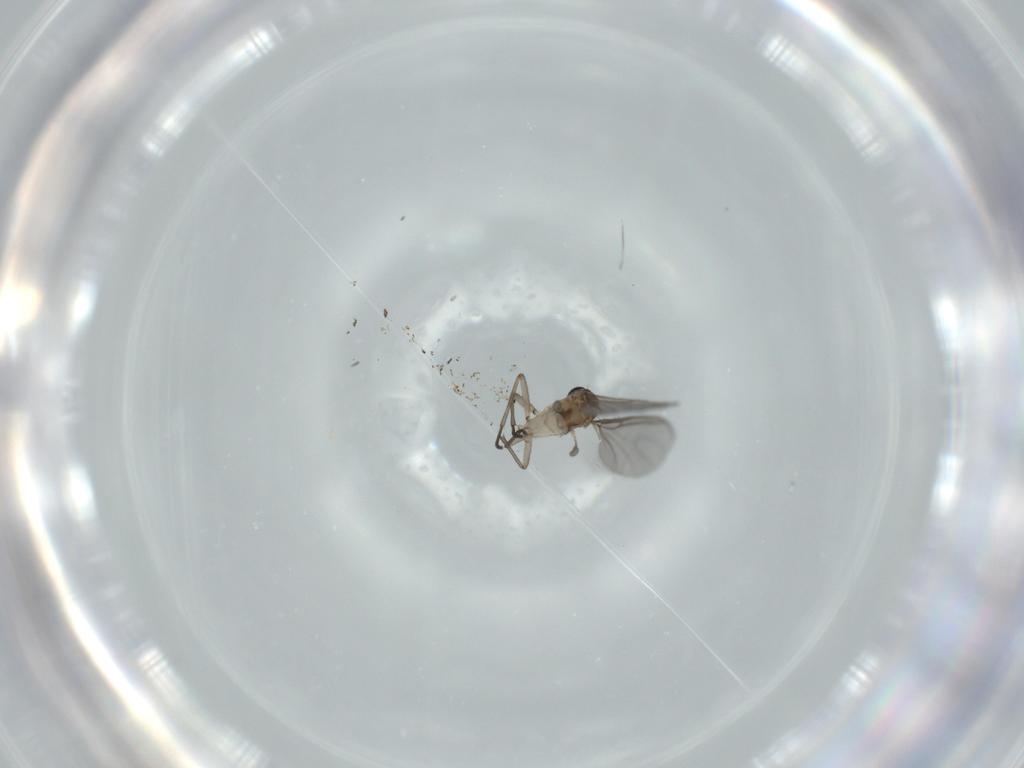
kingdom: Animalia
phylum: Arthropoda
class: Insecta
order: Diptera
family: Sciaridae
